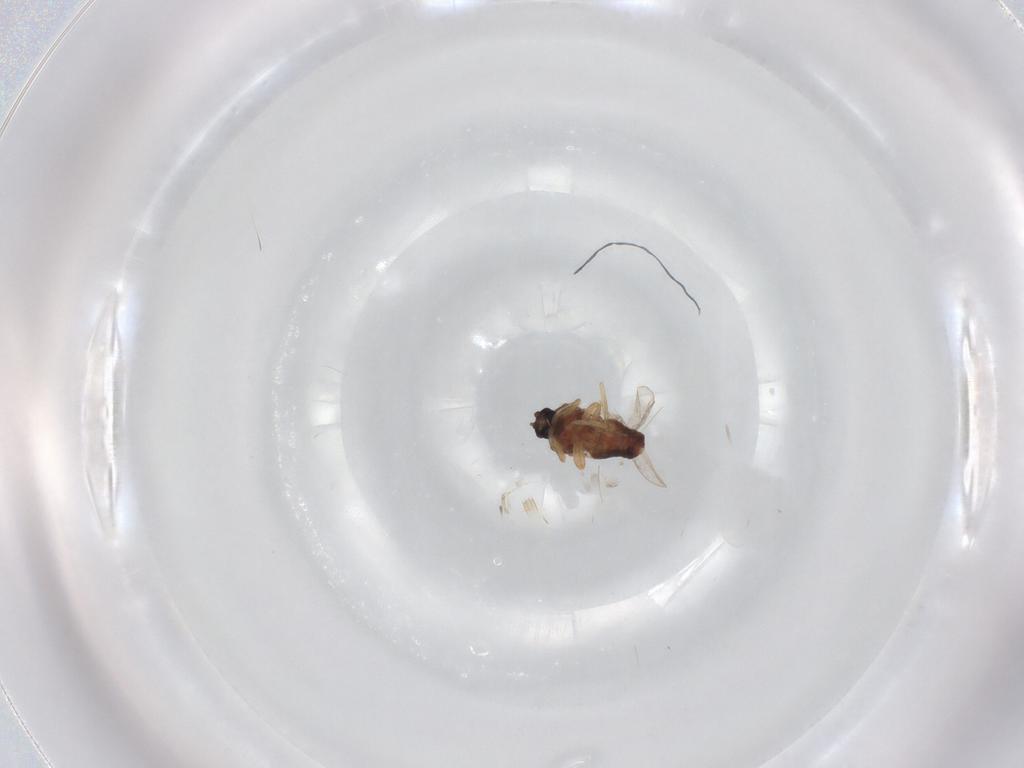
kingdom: Animalia
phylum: Arthropoda
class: Insecta
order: Diptera
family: Ceratopogonidae
